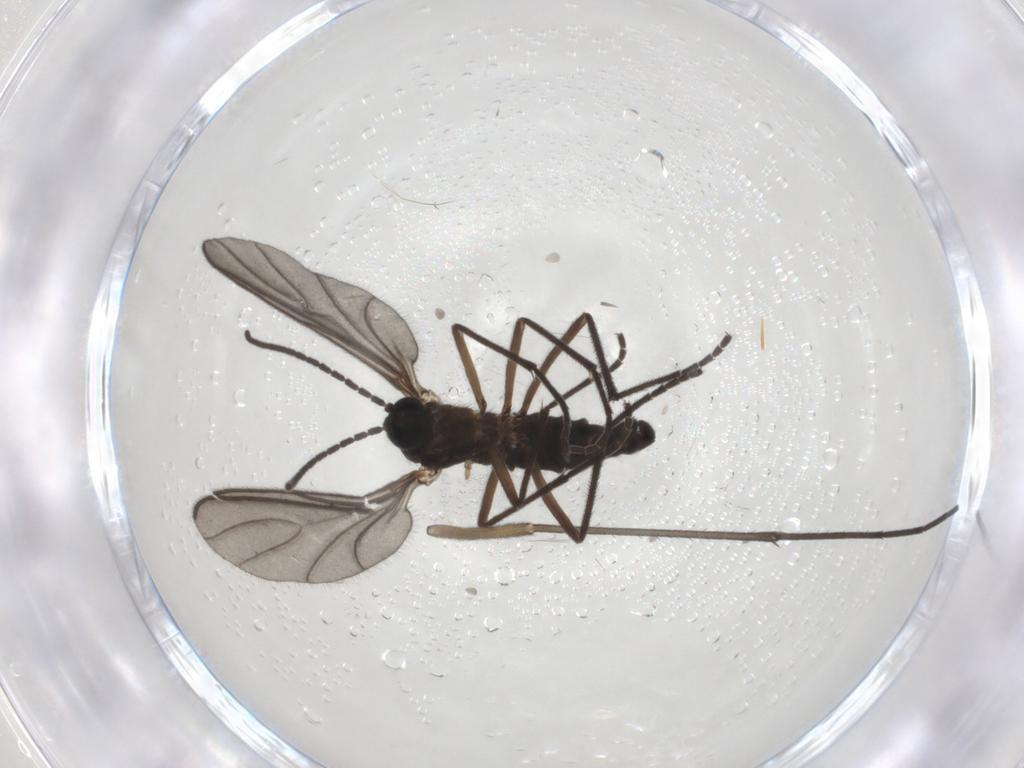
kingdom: Animalia
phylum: Arthropoda
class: Insecta
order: Diptera
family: Sciaridae
